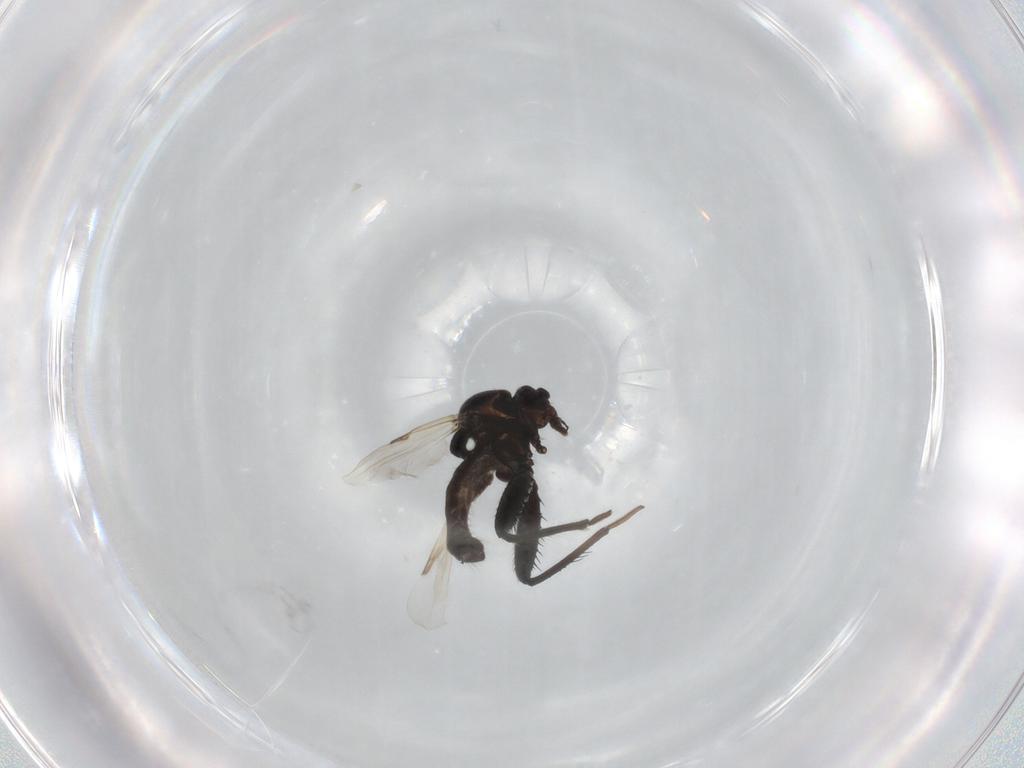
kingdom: Animalia
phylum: Arthropoda
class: Insecta
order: Diptera
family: Ceratopogonidae
